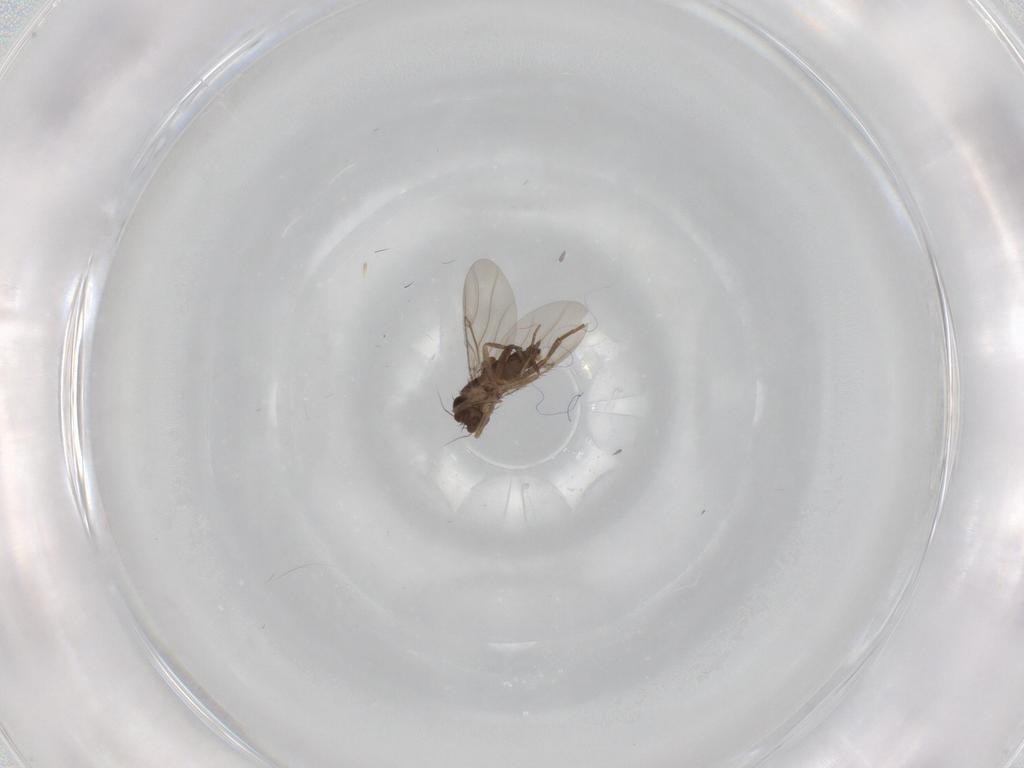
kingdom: Animalia
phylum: Arthropoda
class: Insecta
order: Diptera
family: Phoridae
